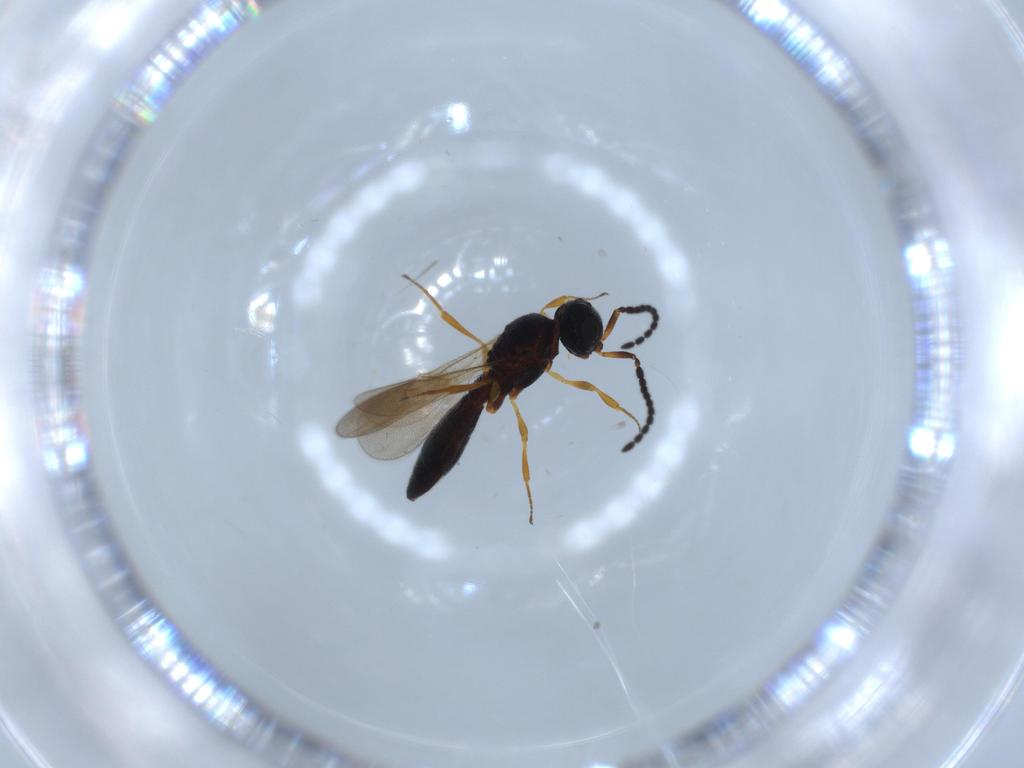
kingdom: Animalia
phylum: Arthropoda
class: Insecta
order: Hymenoptera
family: Scelionidae
